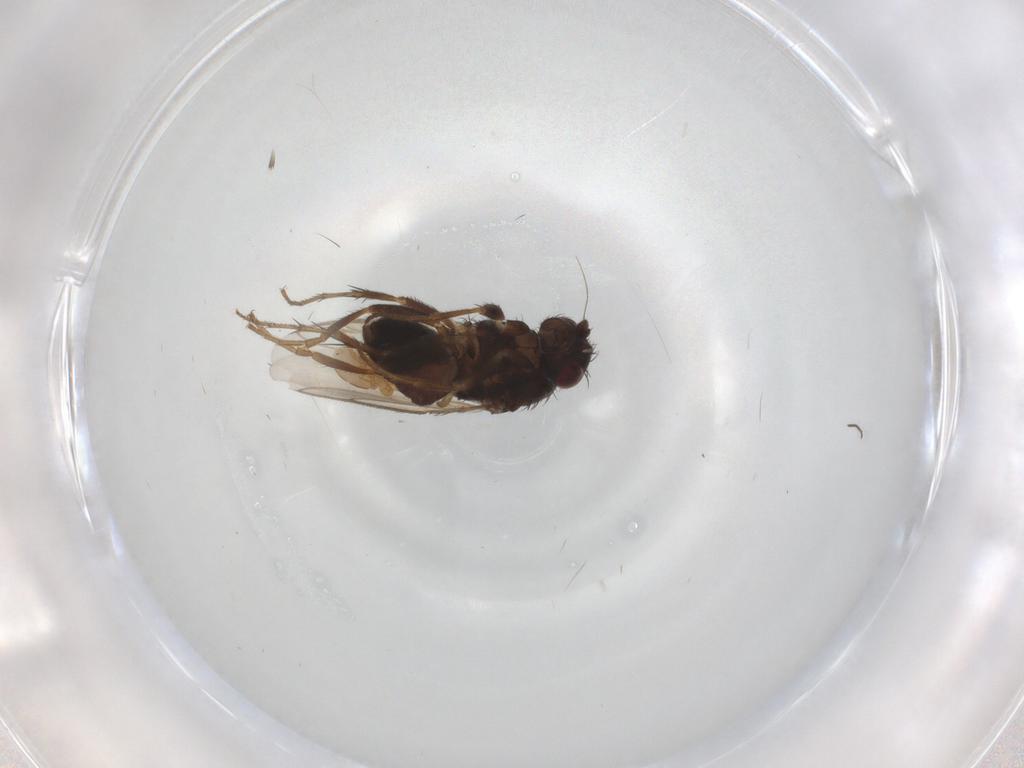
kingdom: Animalia
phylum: Arthropoda
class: Insecta
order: Diptera
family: Sphaeroceridae
